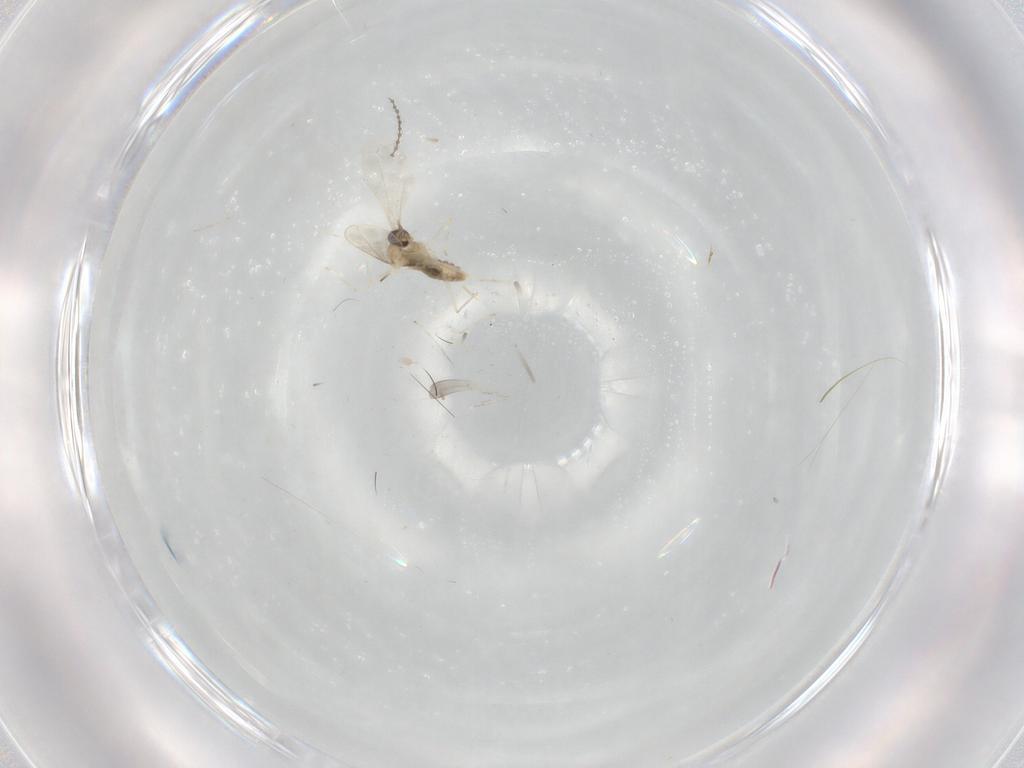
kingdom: Animalia
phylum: Arthropoda
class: Insecta
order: Diptera
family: Cecidomyiidae
